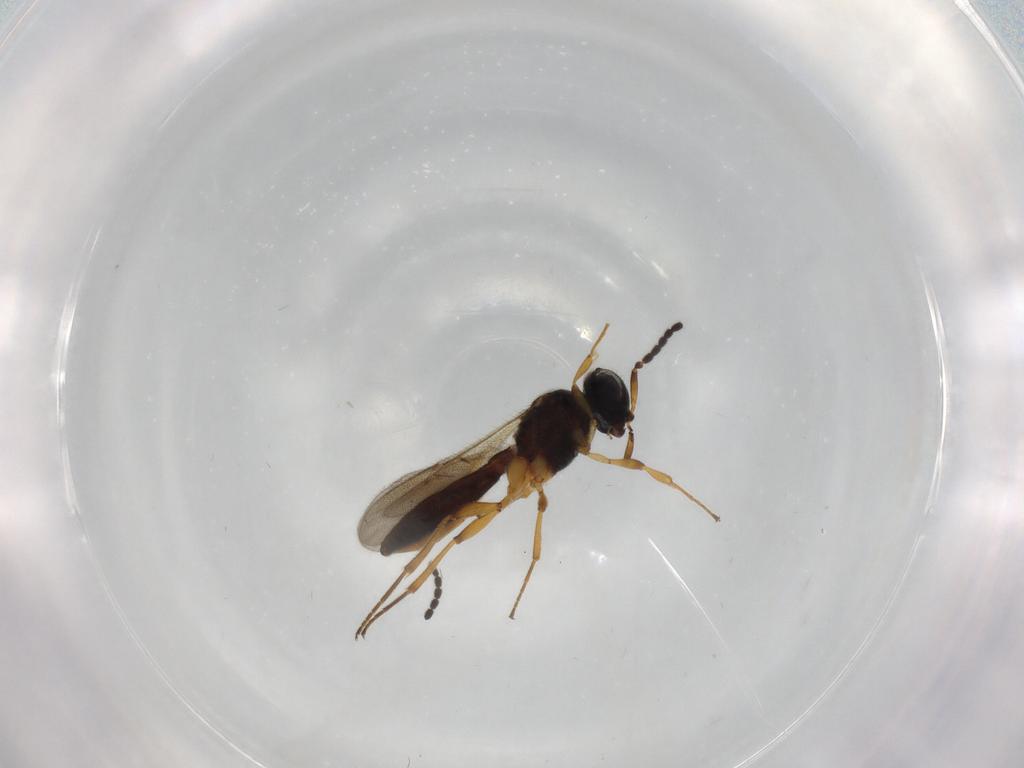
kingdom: Animalia
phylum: Arthropoda
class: Insecta
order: Hymenoptera
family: Scelionidae
